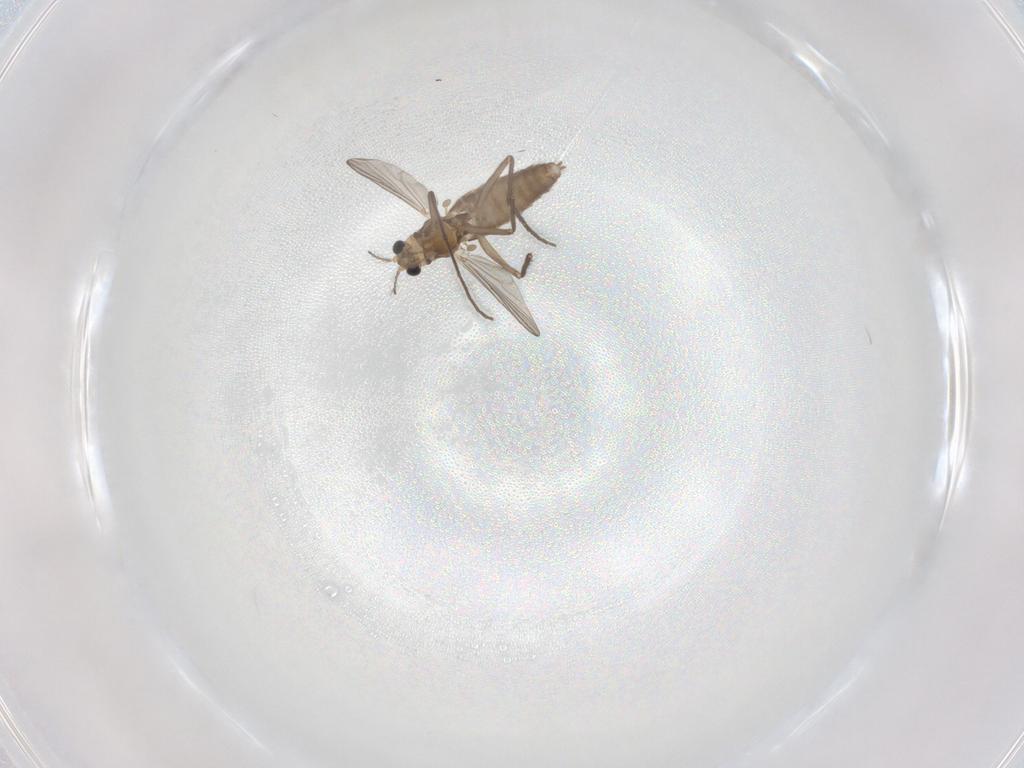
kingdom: Animalia
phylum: Arthropoda
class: Insecta
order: Diptera
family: Chironomidae
